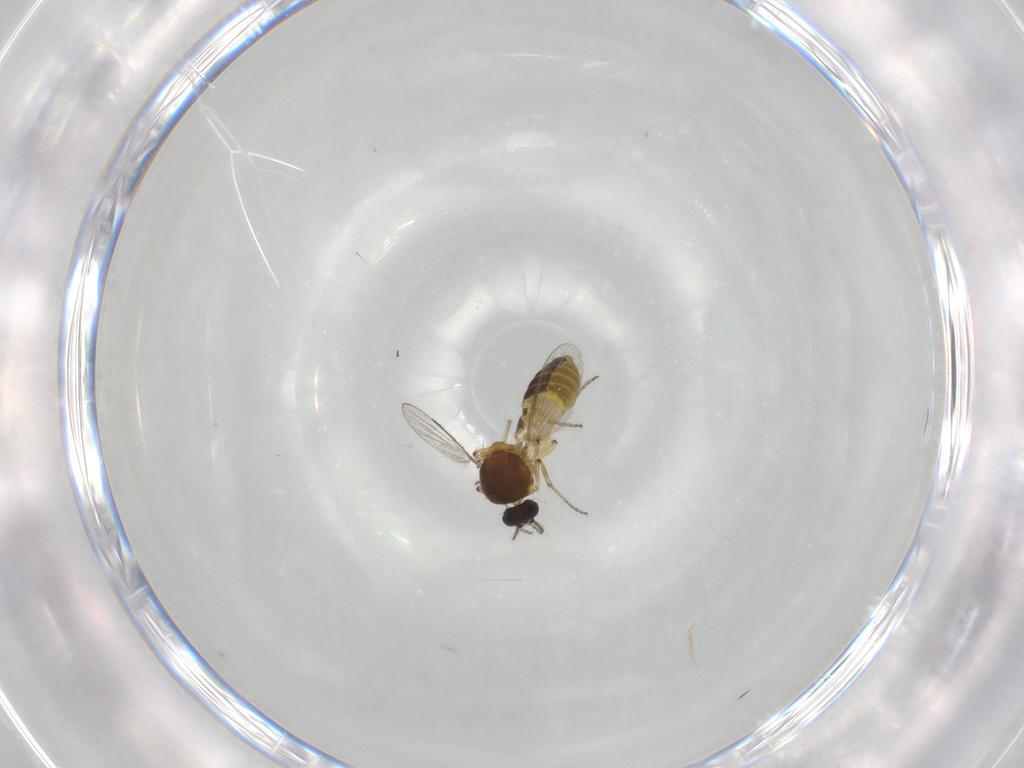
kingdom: Animalia
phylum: Arthropoda
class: Insecta
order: Diptera
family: Ceratopogonidae
